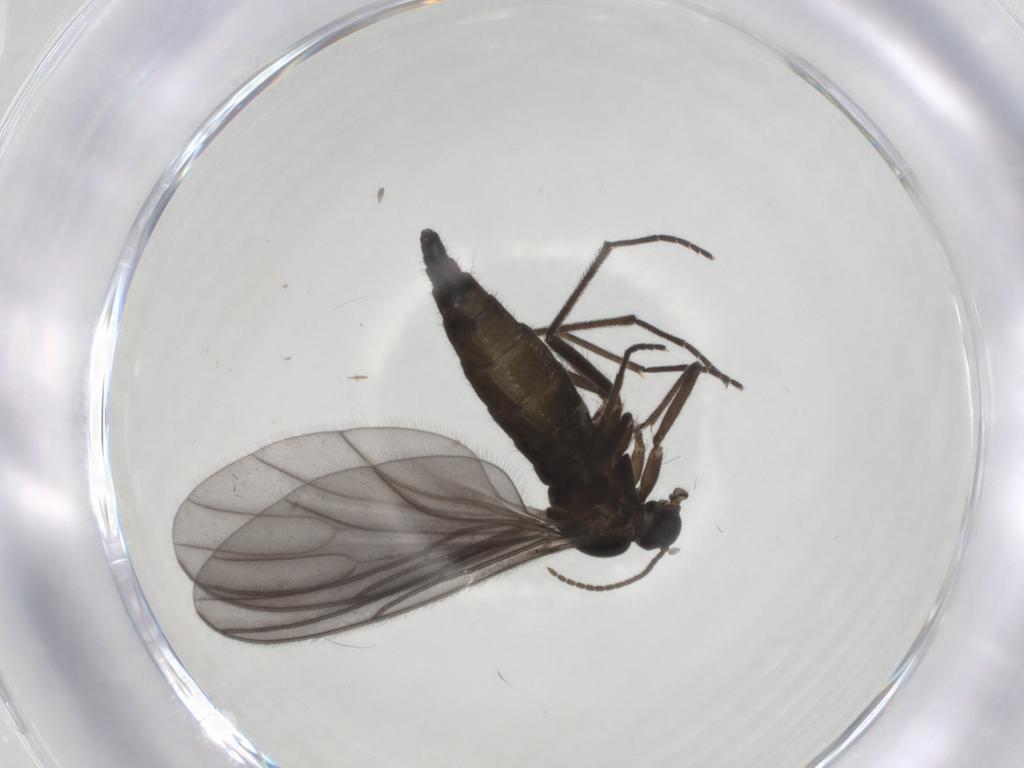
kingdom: Animalia
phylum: Arthropoda
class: Insecta
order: Diptera
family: Sciaridae
